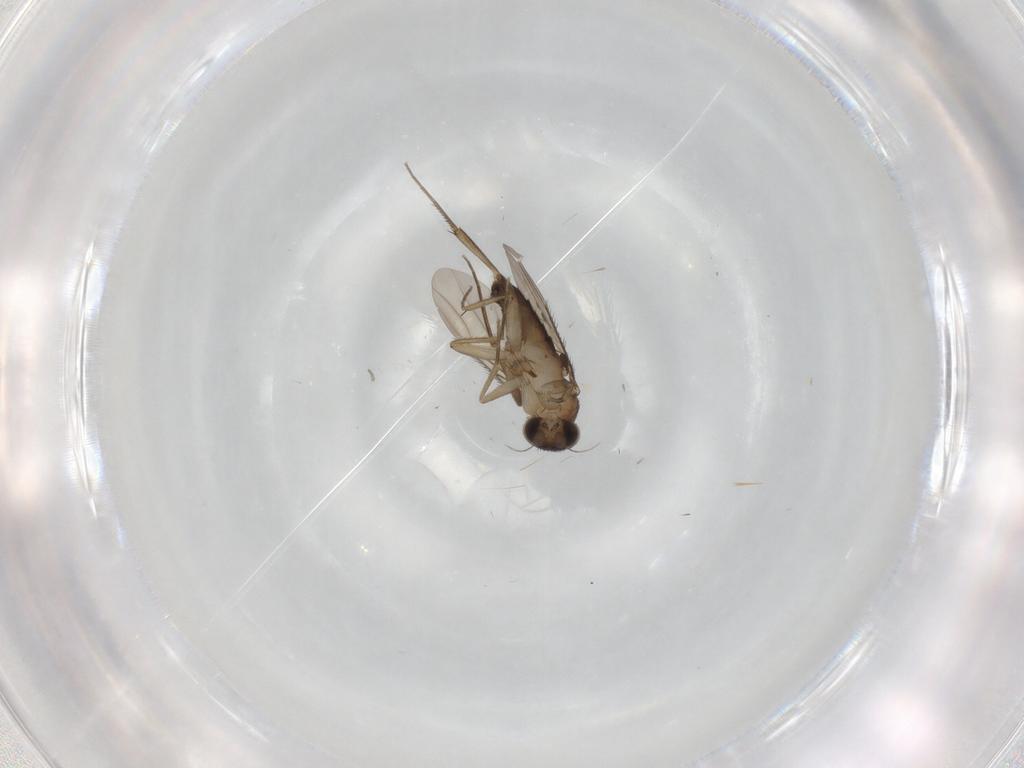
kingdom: Animalia
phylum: Arthropoda
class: Insecta
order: Diptera
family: Phoridae
